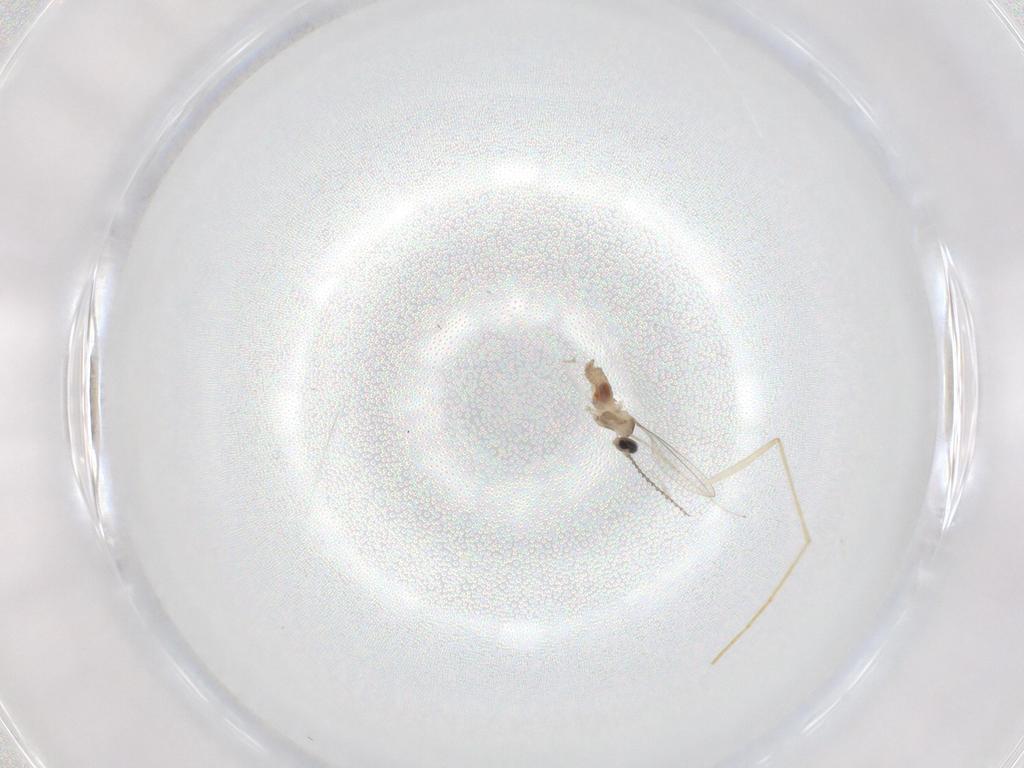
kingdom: Animalia
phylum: Arthropoda
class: Insecta
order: Diptera
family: Cecidomyiidae
